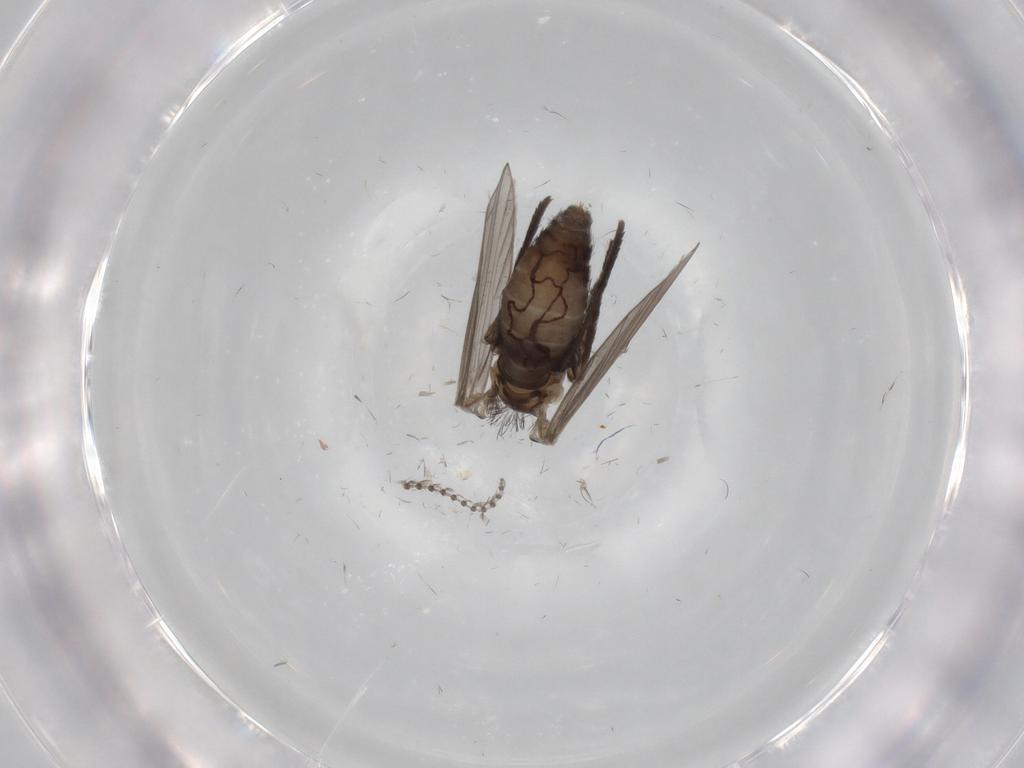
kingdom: Animalia
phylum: Arthropoda
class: Insecta
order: Diptera
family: Psychodidae
